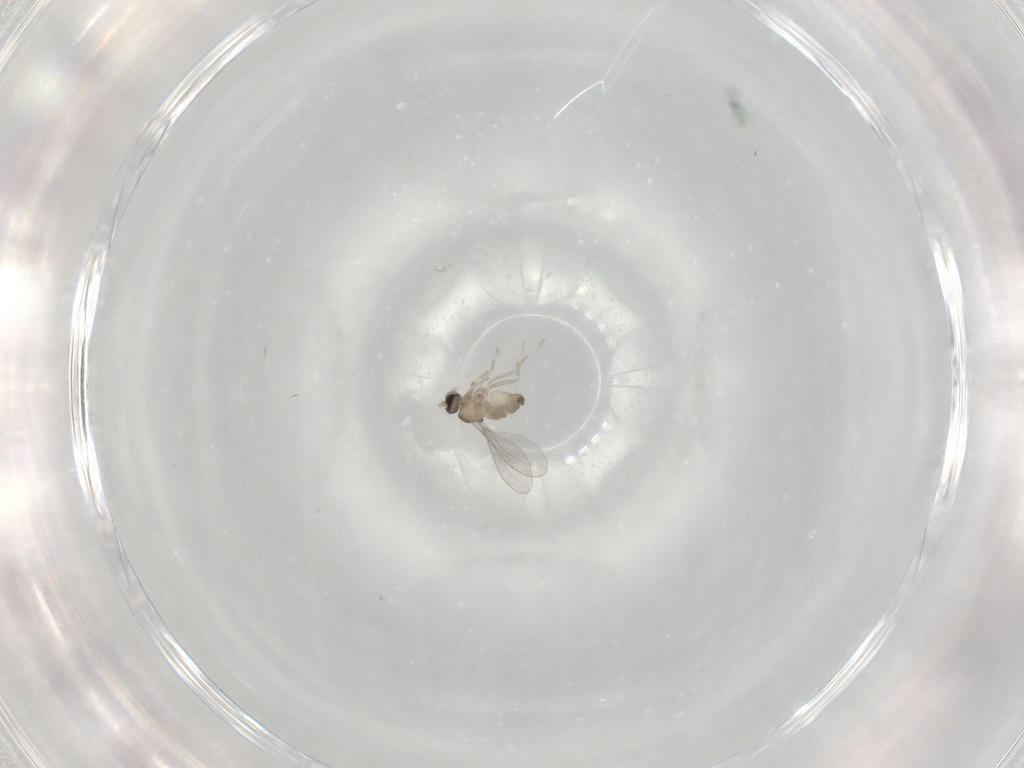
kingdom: Animalia
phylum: Arthropoda
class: Insecta
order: Diptera
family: Cecidomyiidae
